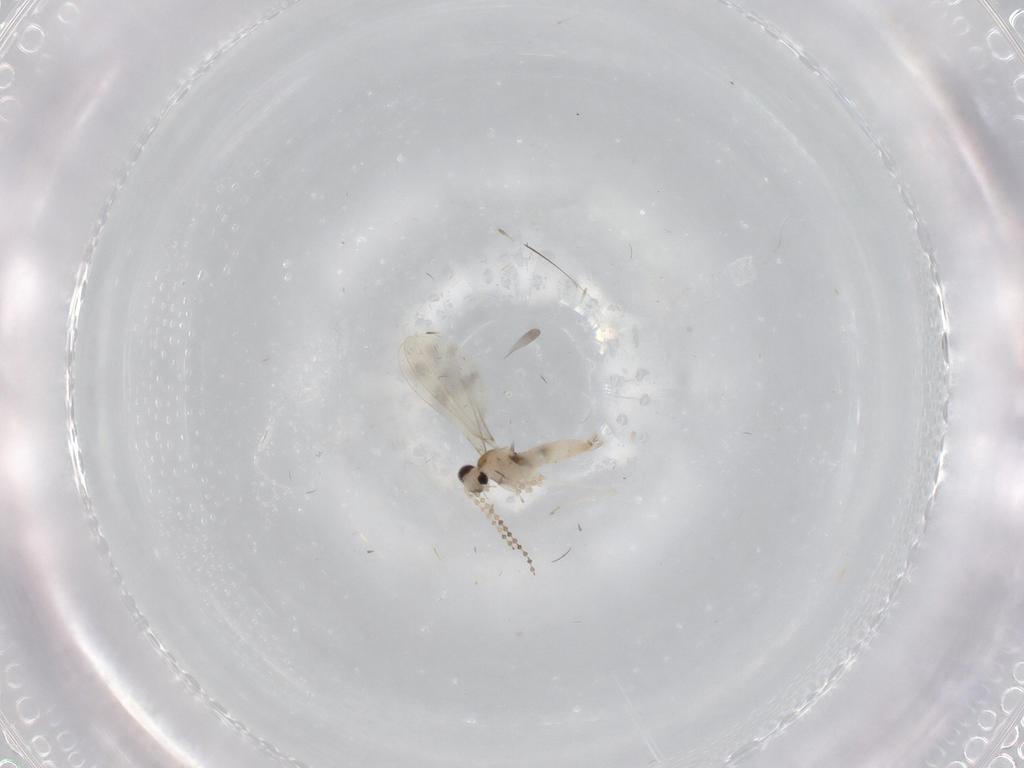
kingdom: Animalia
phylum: Arthropoda
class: Insecta
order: Diptera
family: Cecidomyiidae
